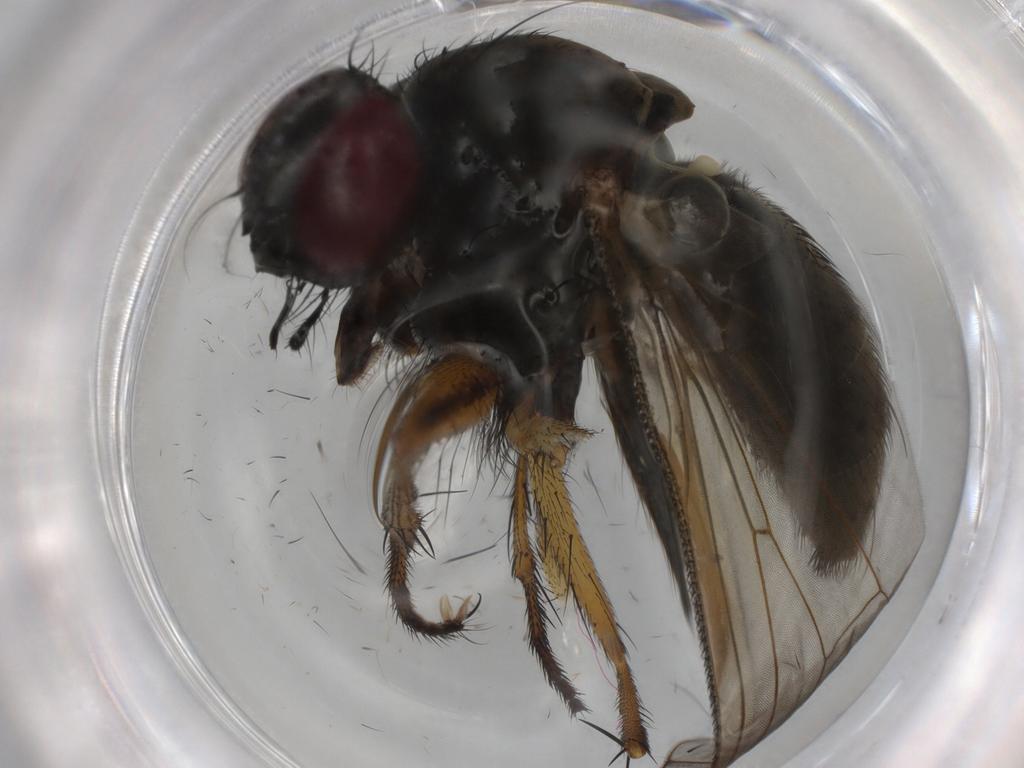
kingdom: Animalia
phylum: Arthropoda
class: Insecta
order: Diptera
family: Muscidae
